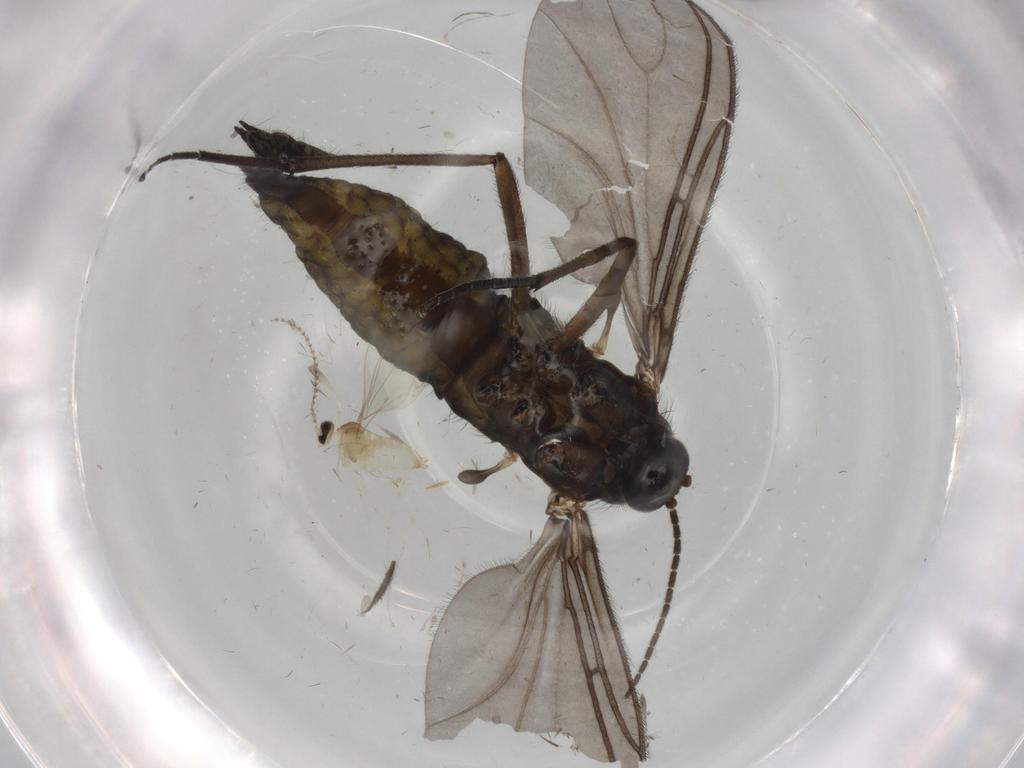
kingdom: Animalia
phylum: Arthropoda
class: Insecta
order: Diptera
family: Sciaridae
